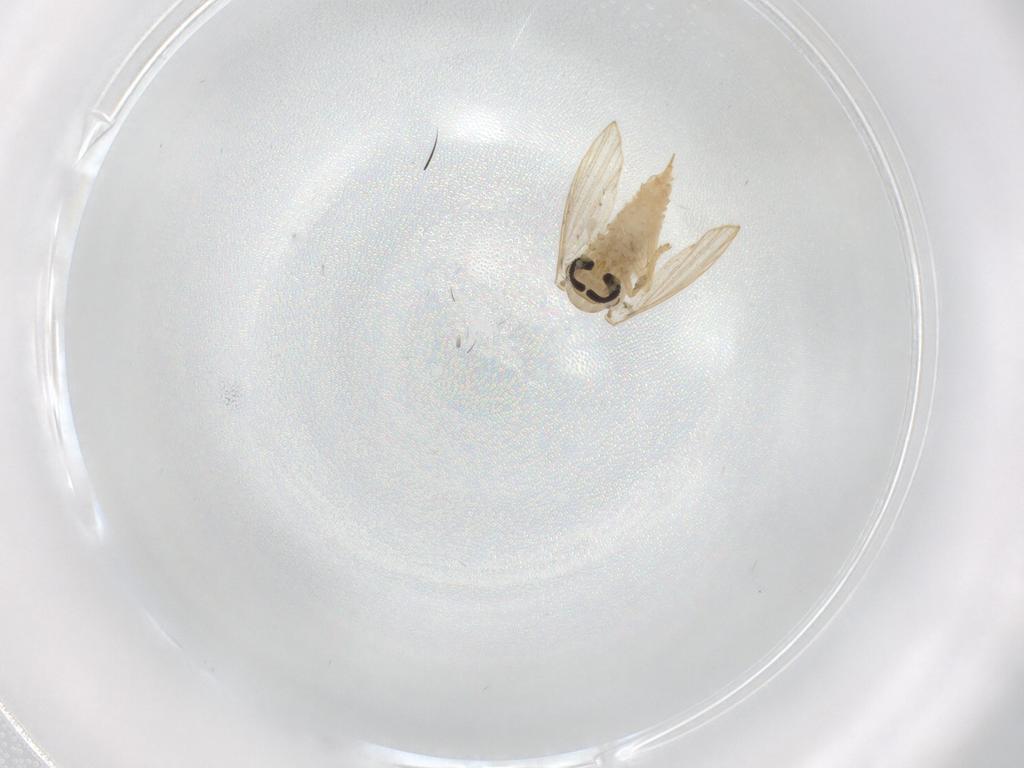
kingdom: Animalia
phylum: Arthropoda
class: Insecta
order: Diptera
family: Psychodidae
